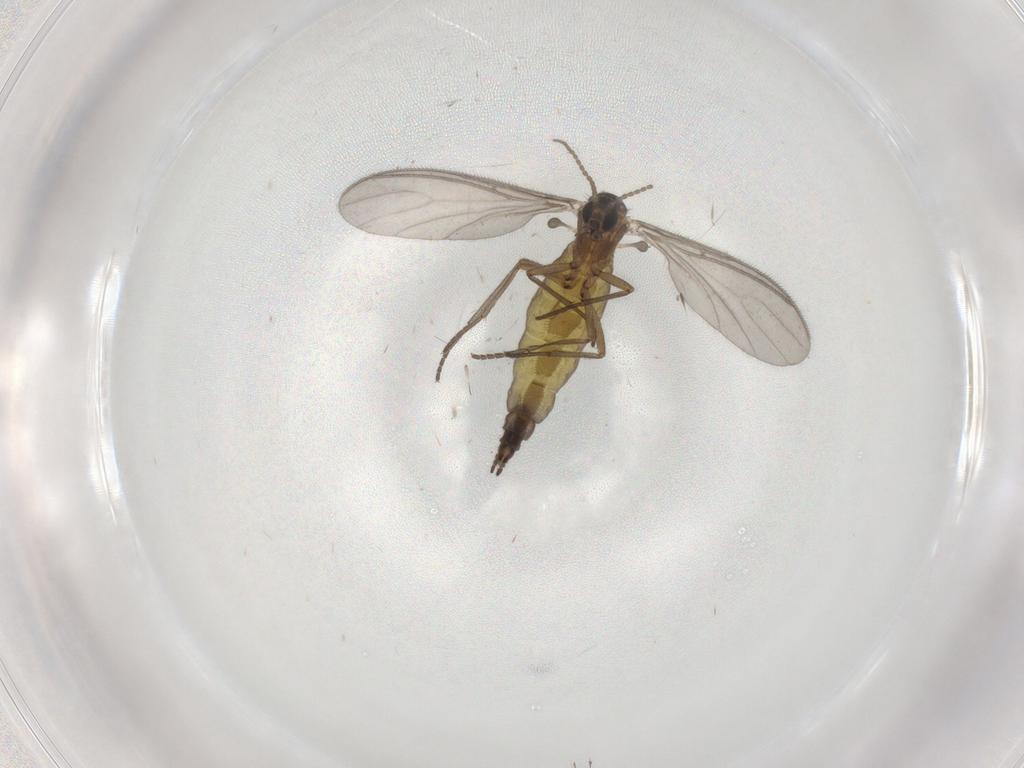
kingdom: Animalia
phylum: Arthropoda
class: Insecta
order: Diptera
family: Sciaridae
